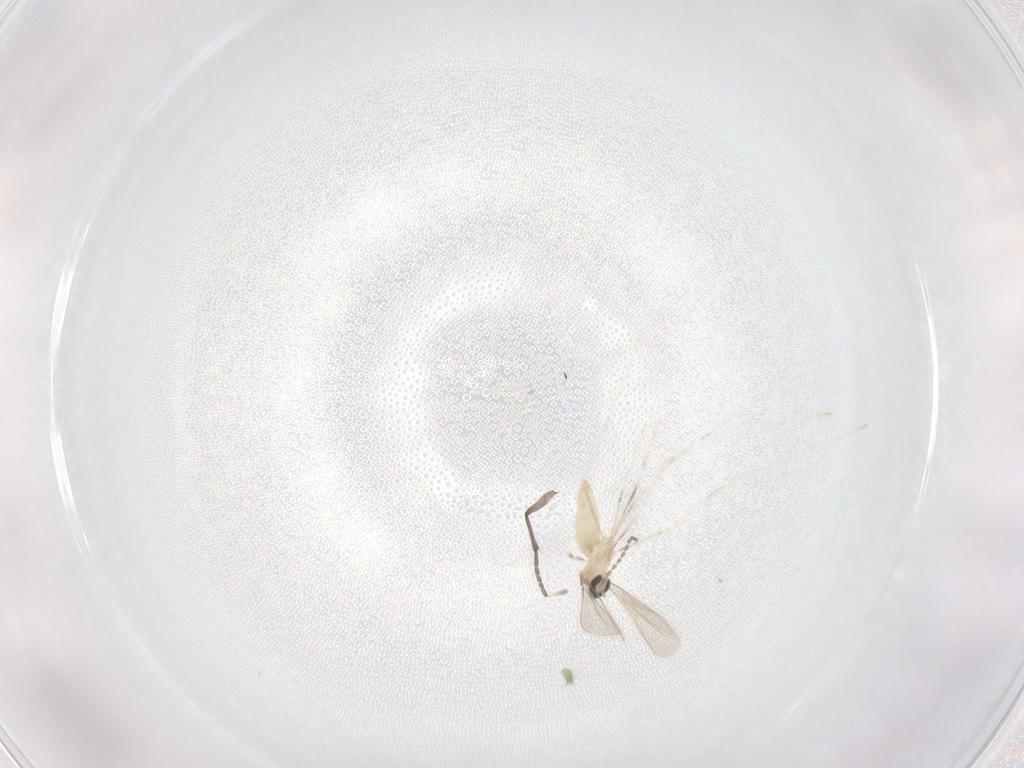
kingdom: Animalia
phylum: Arthropoda
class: Insecta
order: Diptera
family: Cecidomyiidae
